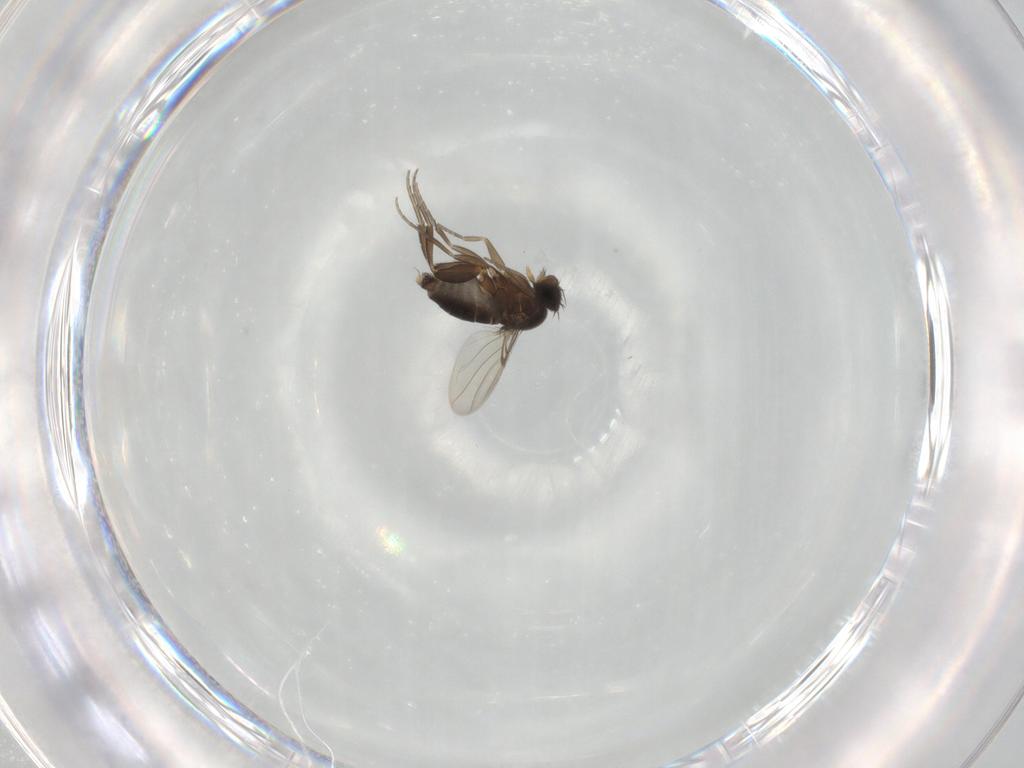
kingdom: Animalia
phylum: Arthropoda
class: Insecta
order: Diptera
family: Phoridae
